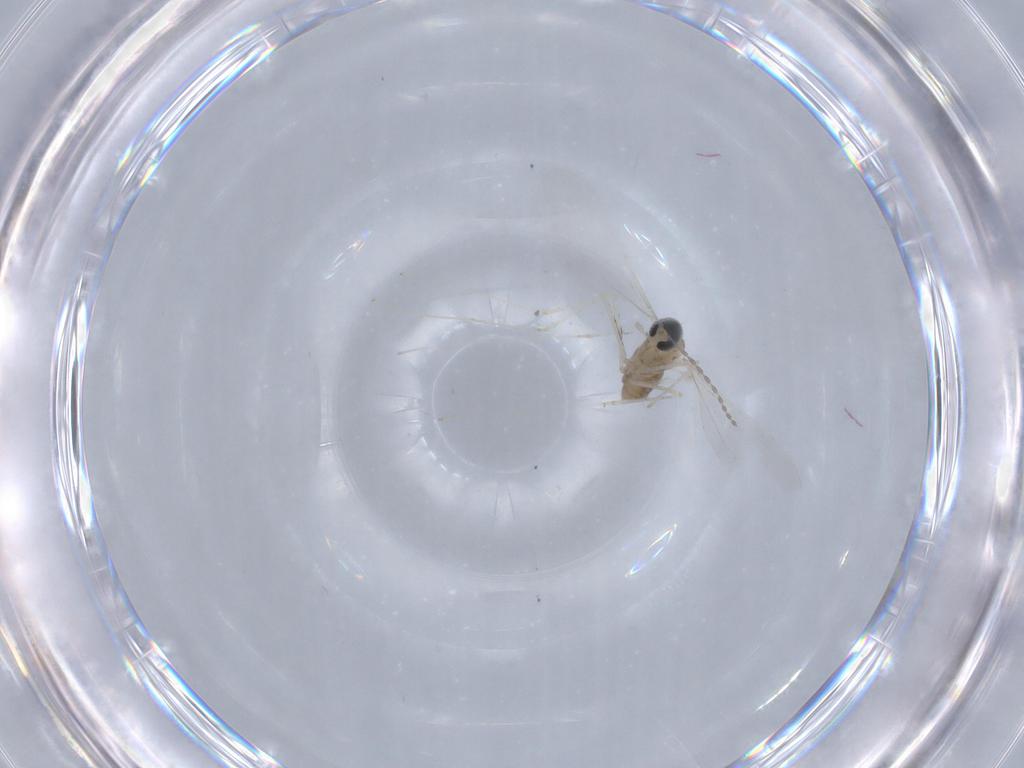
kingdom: Animalia
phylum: Arthropoda
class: Insecta
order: Diptera
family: Cecidomyiidae
